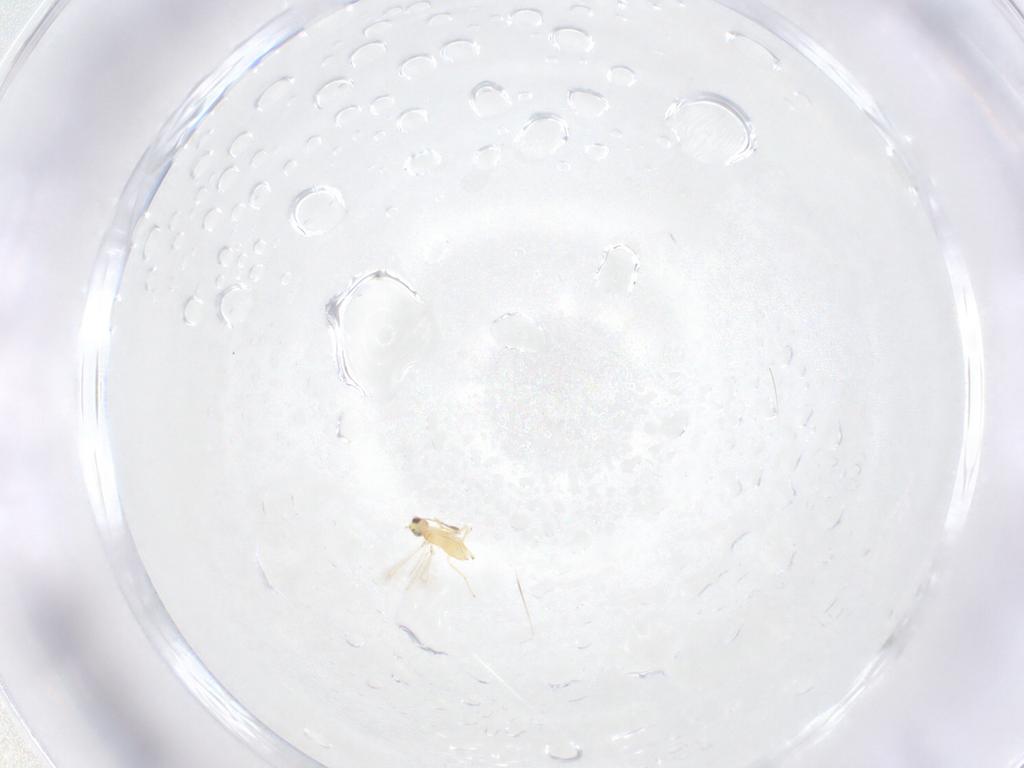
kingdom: Animalia
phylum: Arthropoda
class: Insecta
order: Hymenoptera
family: Mymaridae
